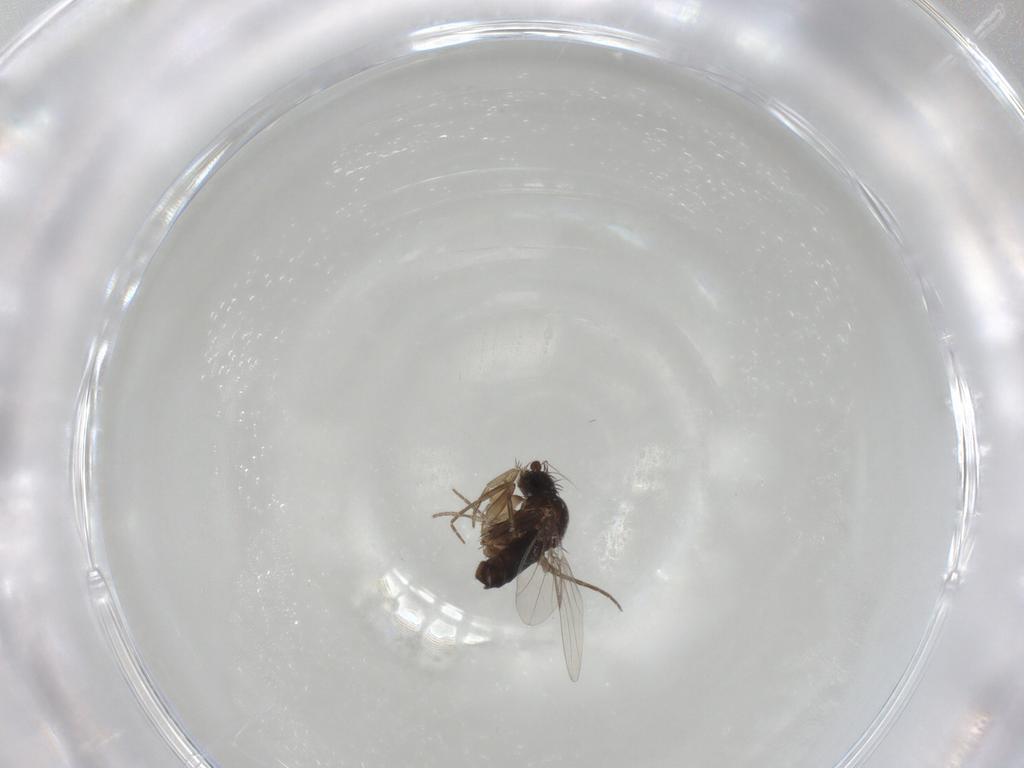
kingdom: Animalia
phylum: Arthropoda
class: Insecta
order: Diptera
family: Phoridae
